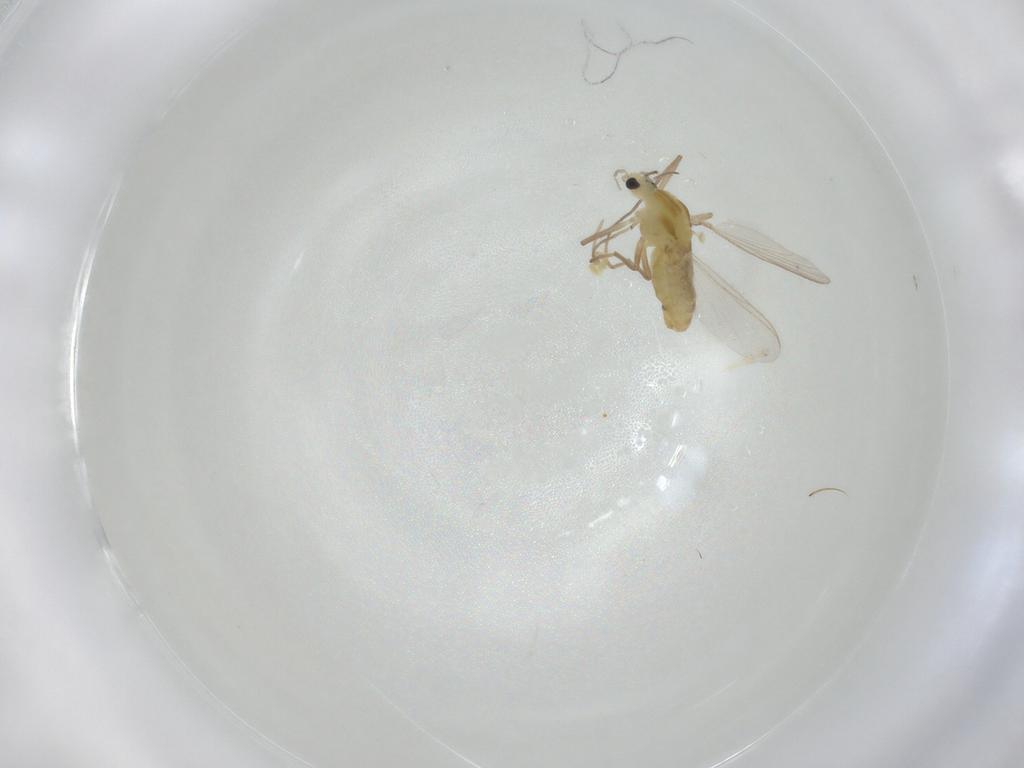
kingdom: Animalia
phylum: Arthropoda
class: Insecta
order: Diptera
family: Chironomidae
